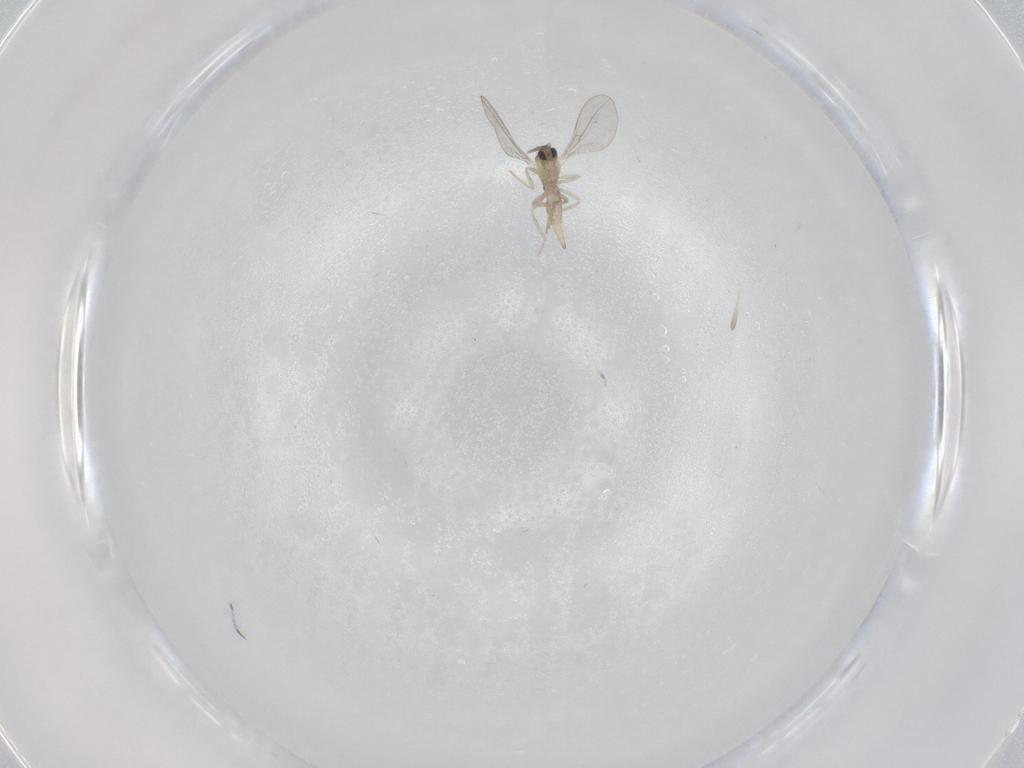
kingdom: Animalia
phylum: Arthropoda
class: Insecta
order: Diptera
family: Cecidomyiidae
